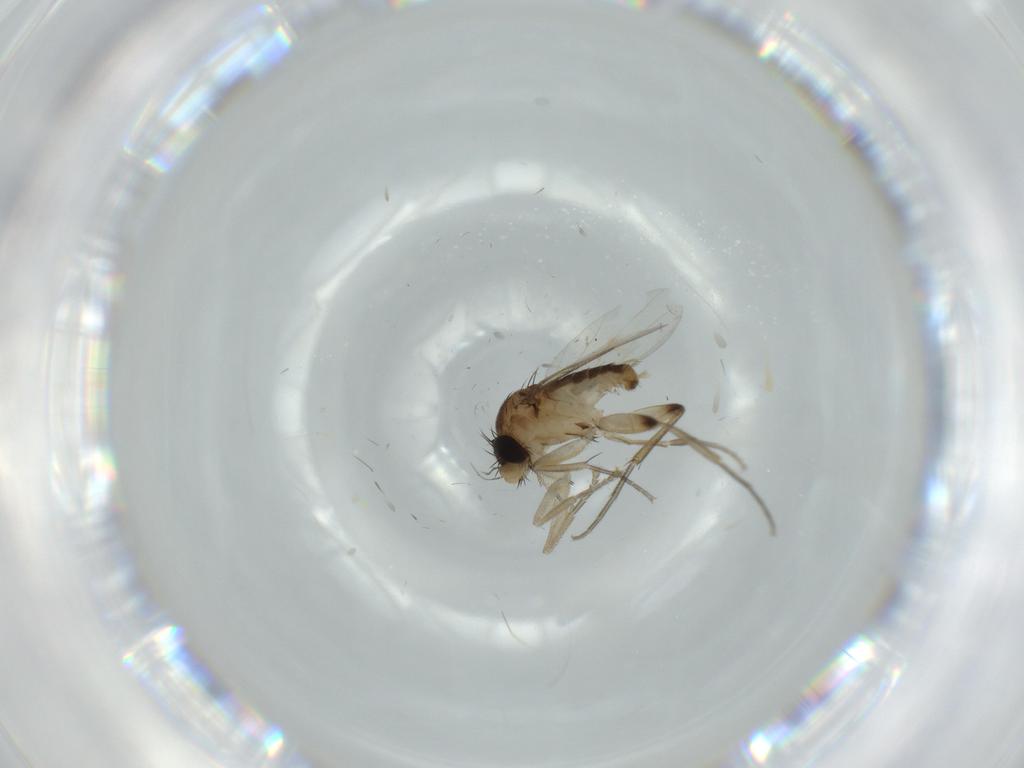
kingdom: Animalia
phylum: Arthropoda
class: Insecta
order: Diptera
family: Phoridae
